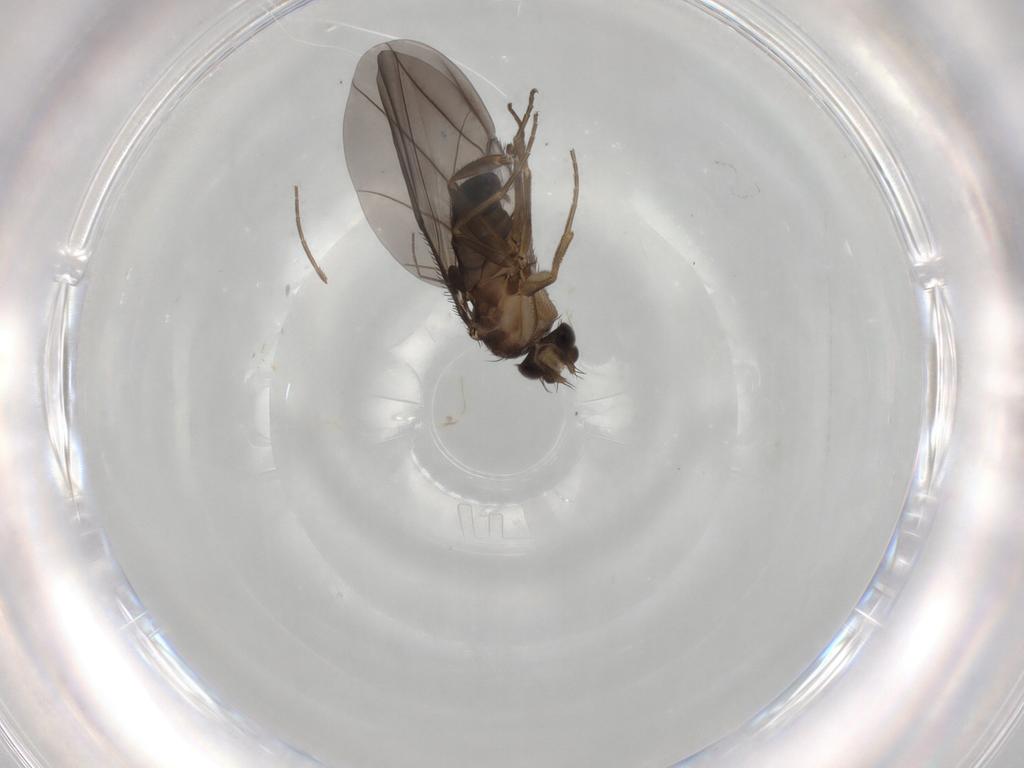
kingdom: Animalia
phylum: Arthropoda
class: Insecta
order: Diptera
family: Chironomidae
